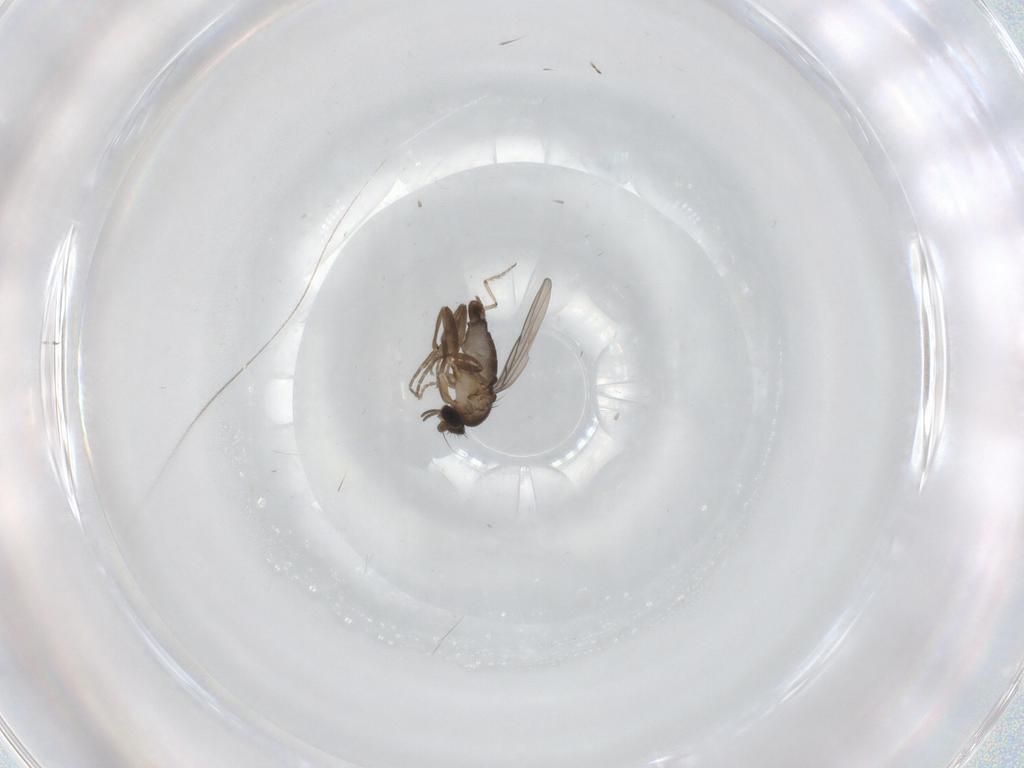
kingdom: Animalia
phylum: Arthropoda
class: Insecta
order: Diptera
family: Ceratopogonidae
